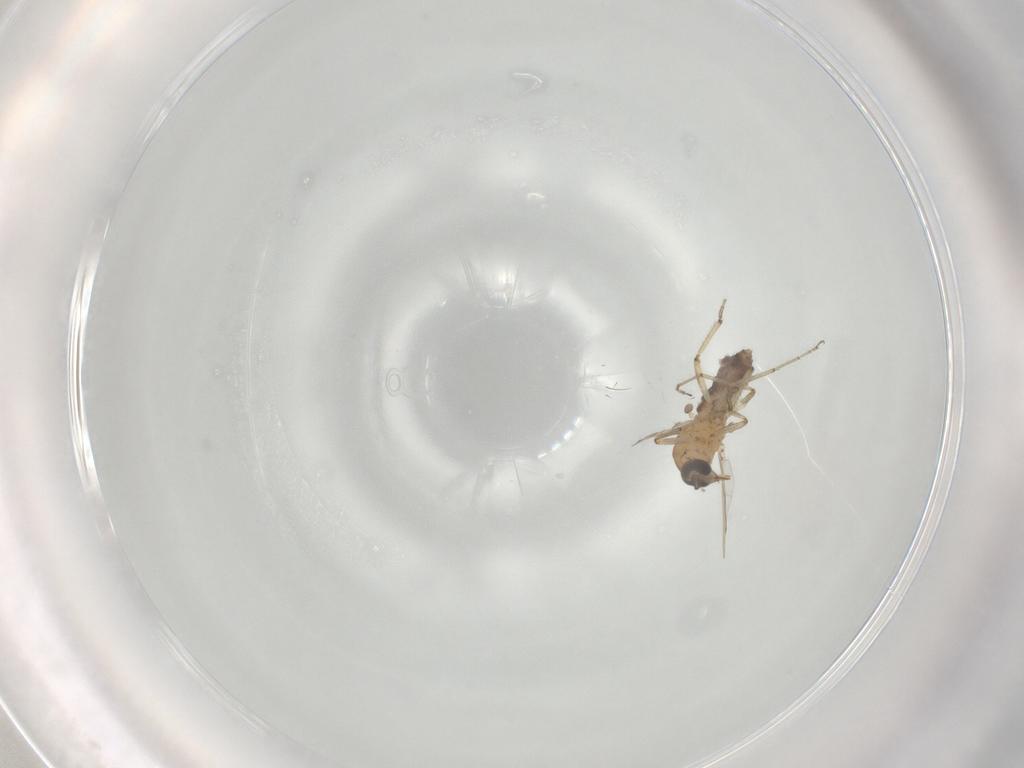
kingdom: Animalia
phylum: Arthropoda
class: Insecta
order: Diptera
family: Ceratopogonidae
